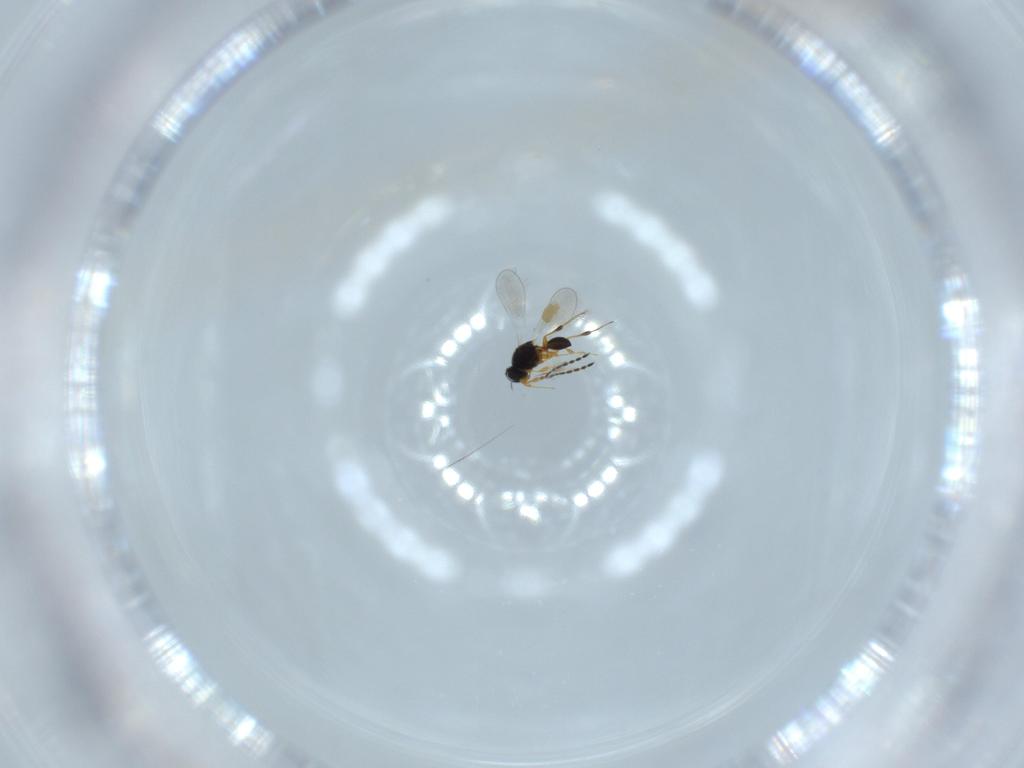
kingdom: Animalia
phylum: Arthropoda
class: Insecta
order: Hymenoptera
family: Platygastridae
